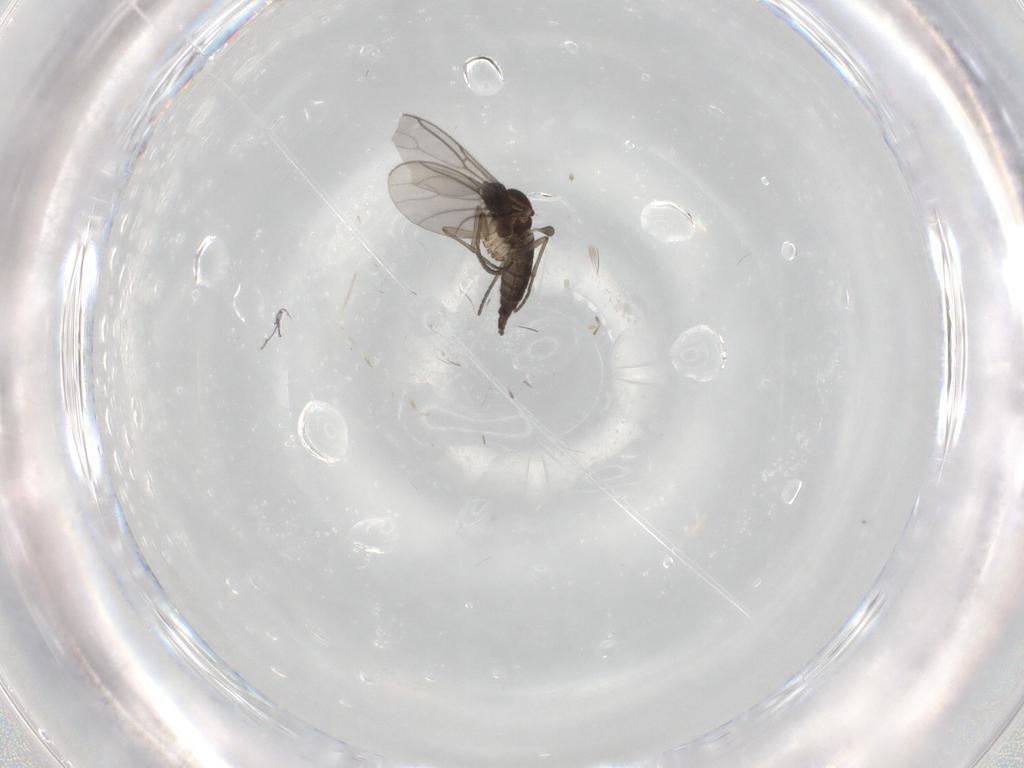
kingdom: Animalia
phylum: Arthropoda
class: Insecta
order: Diptera
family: Cecidomyiidae
